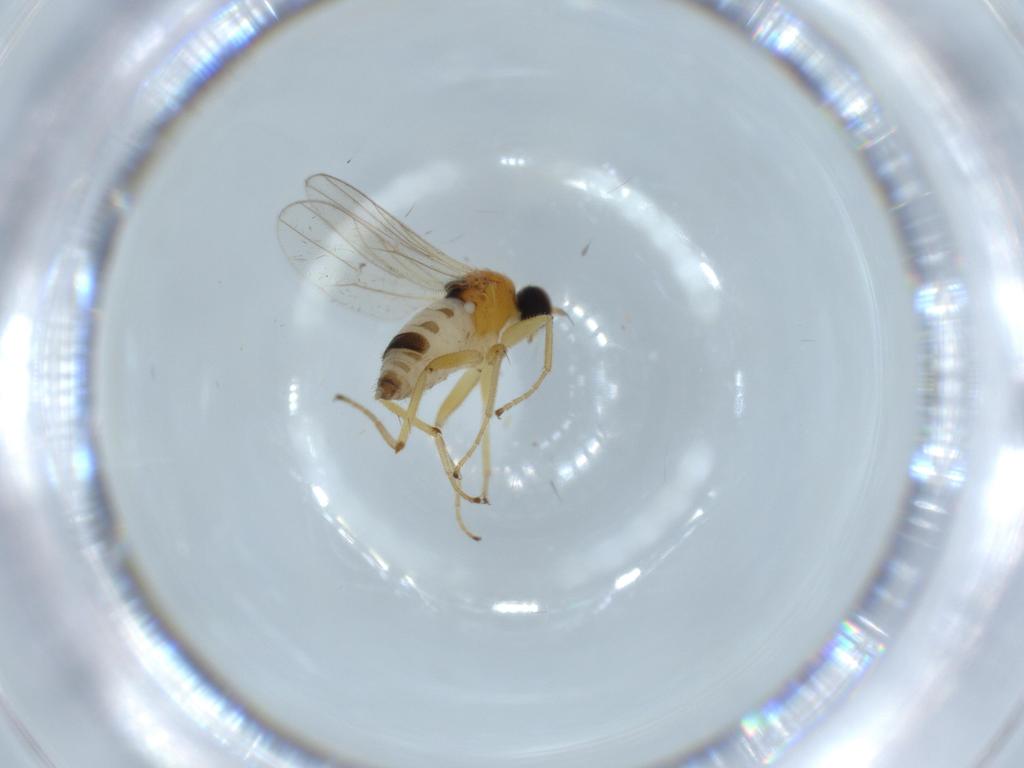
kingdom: Animalia
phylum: Arthropoda
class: Insecta
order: Diptera
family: Hybotidae
